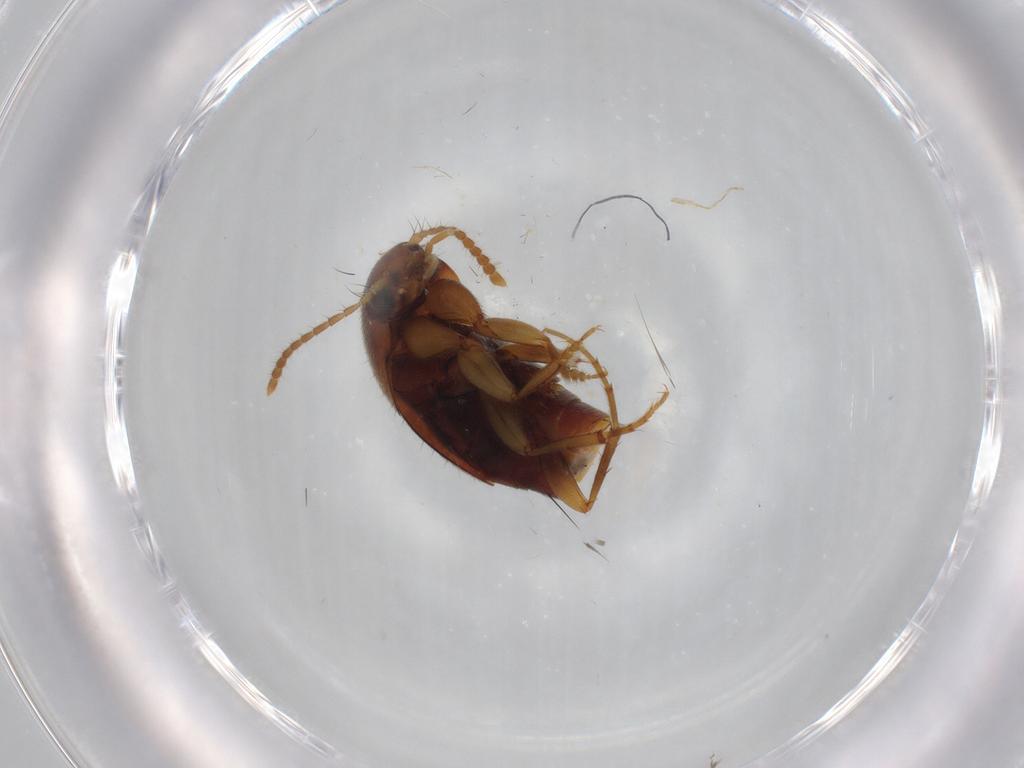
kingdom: Animalia
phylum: Arthropoda
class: Insecta
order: Coleoptera
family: Staphylinidae
